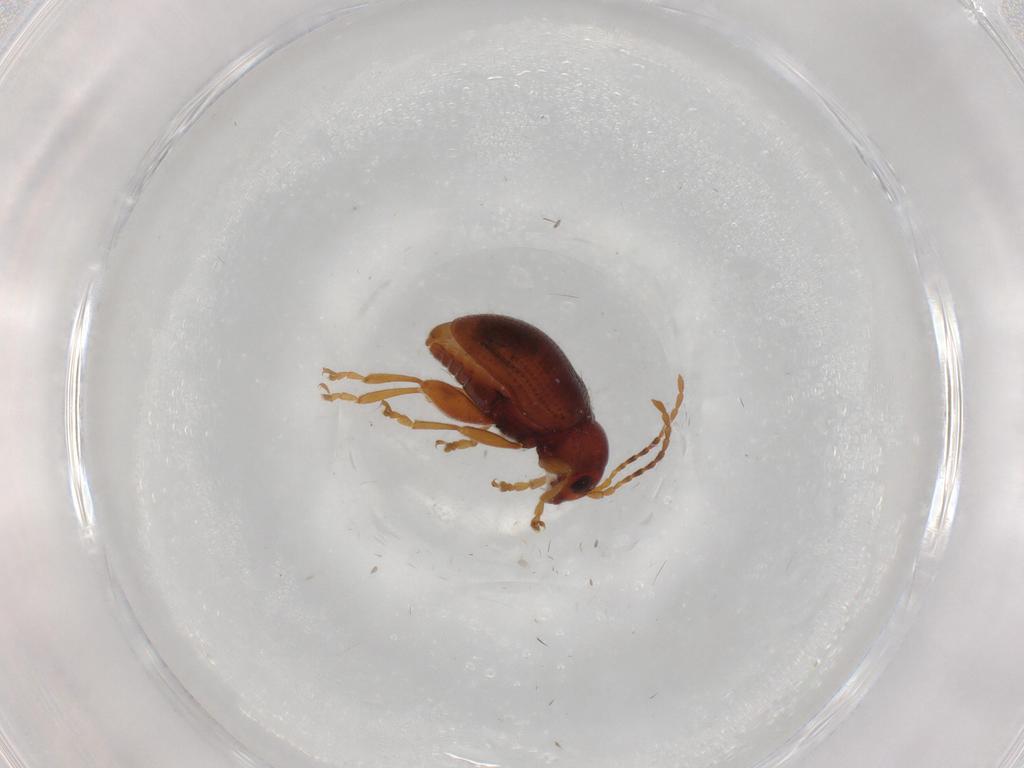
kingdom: Animalia
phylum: Arthropoda
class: Insecta
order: Coleoptera
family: Chrysomelidae
